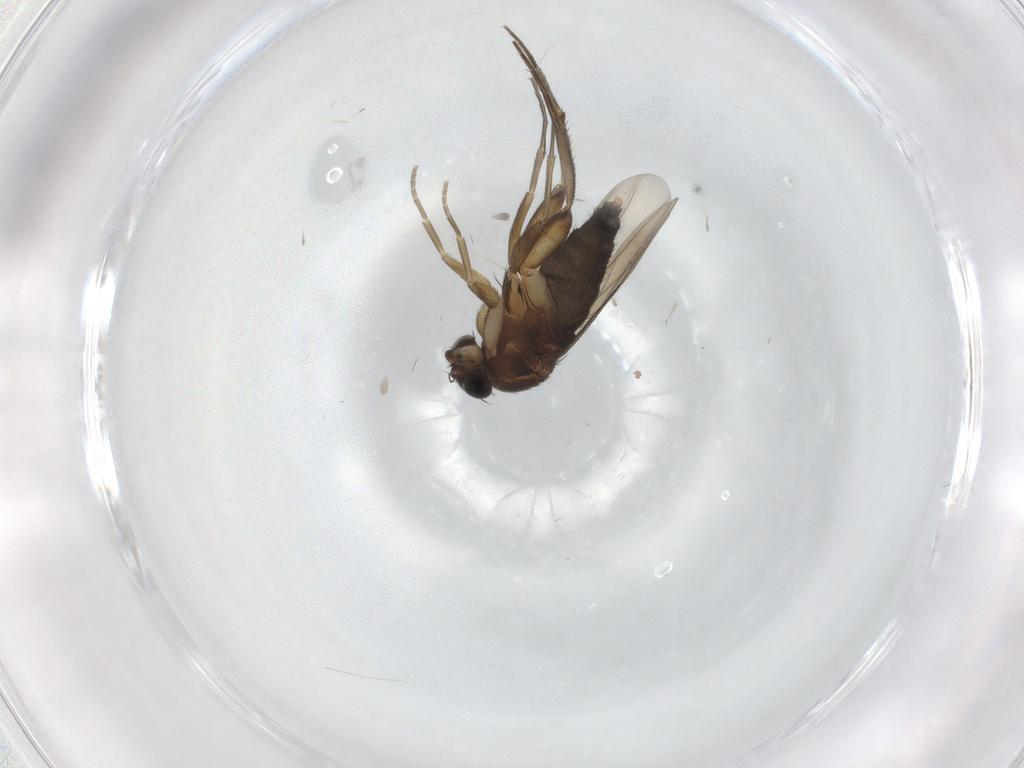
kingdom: Animalia
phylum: Arthropoda
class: Insecta
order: Diptera
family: Phoridae
